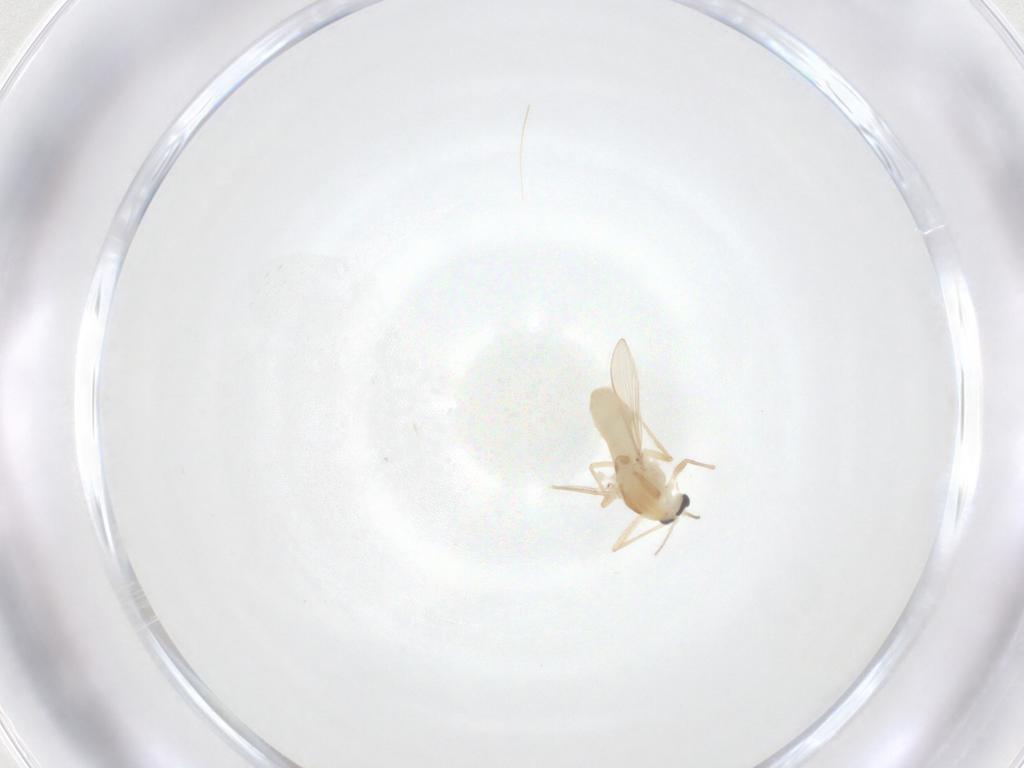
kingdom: Animalia
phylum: Arthropoda
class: Insecta
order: Diptera
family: Chironomidae
